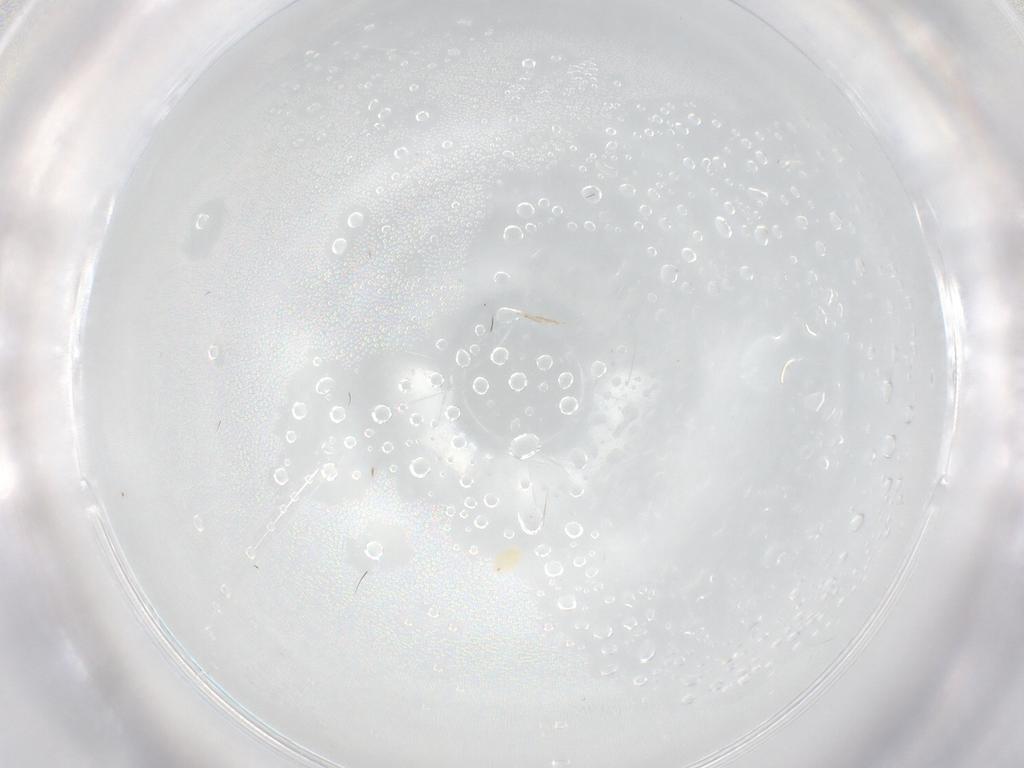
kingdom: Animalia
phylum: Arthropoda
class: Arachnida
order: Trombidiformes
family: Tetranychidae
